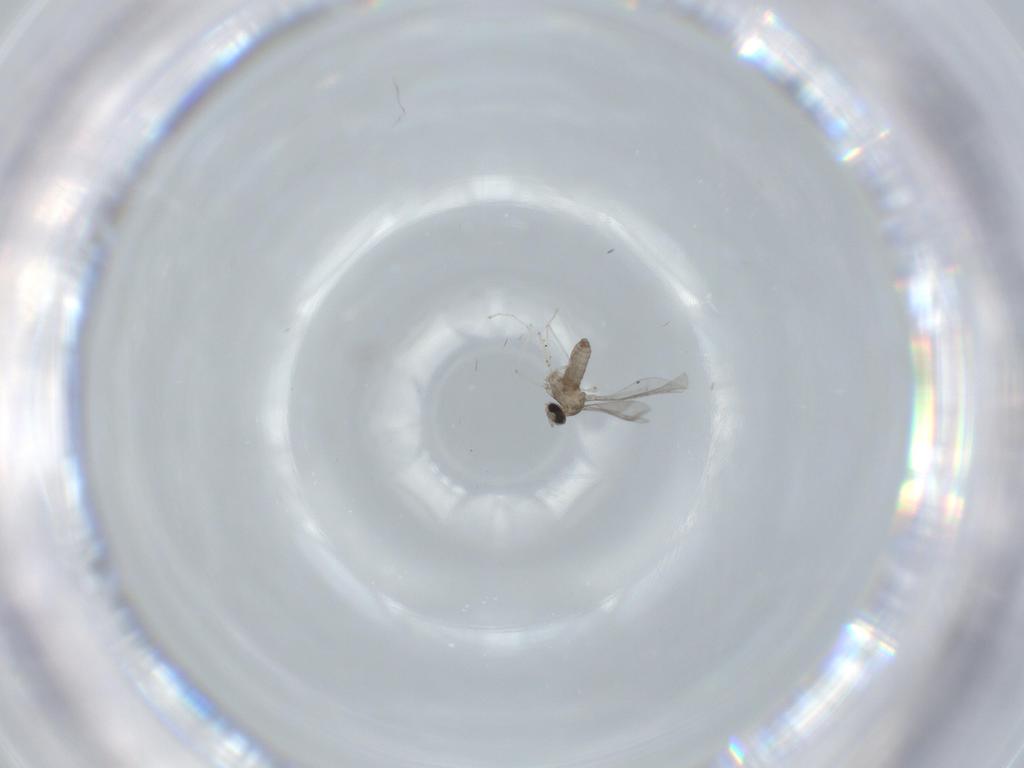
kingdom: Animalia
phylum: Arthropoda
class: Insecta
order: Diptera
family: Cecidomyiidae
